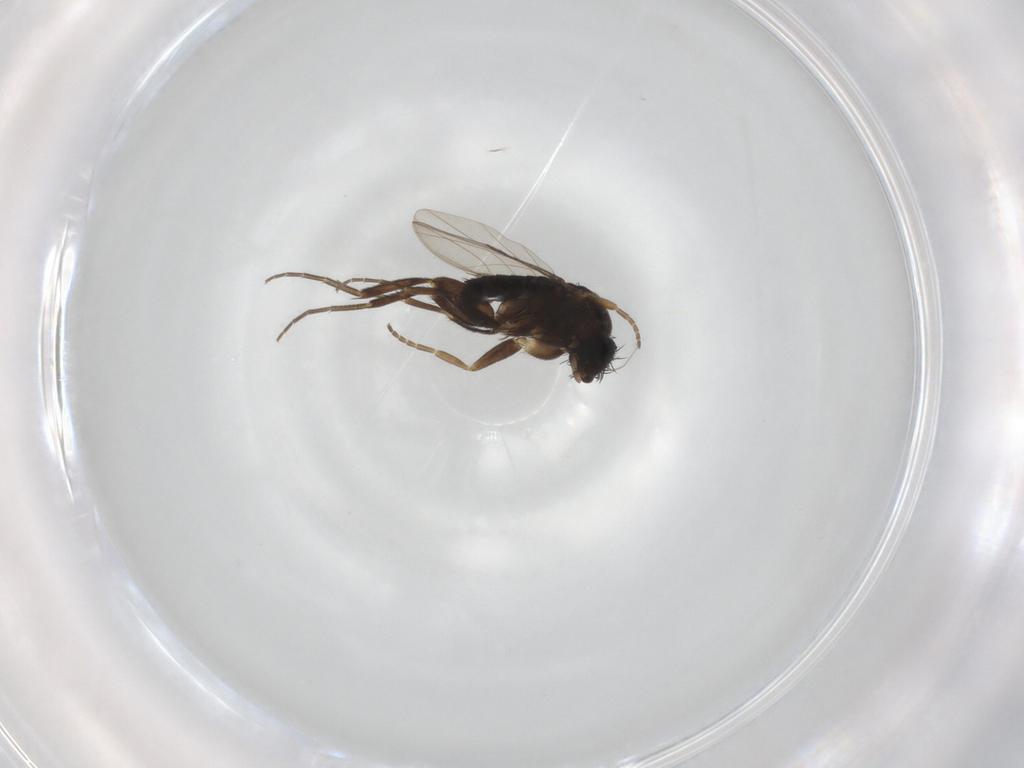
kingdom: Animalia
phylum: Arthropoda
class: Insecta
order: Diptera
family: Phoridae
